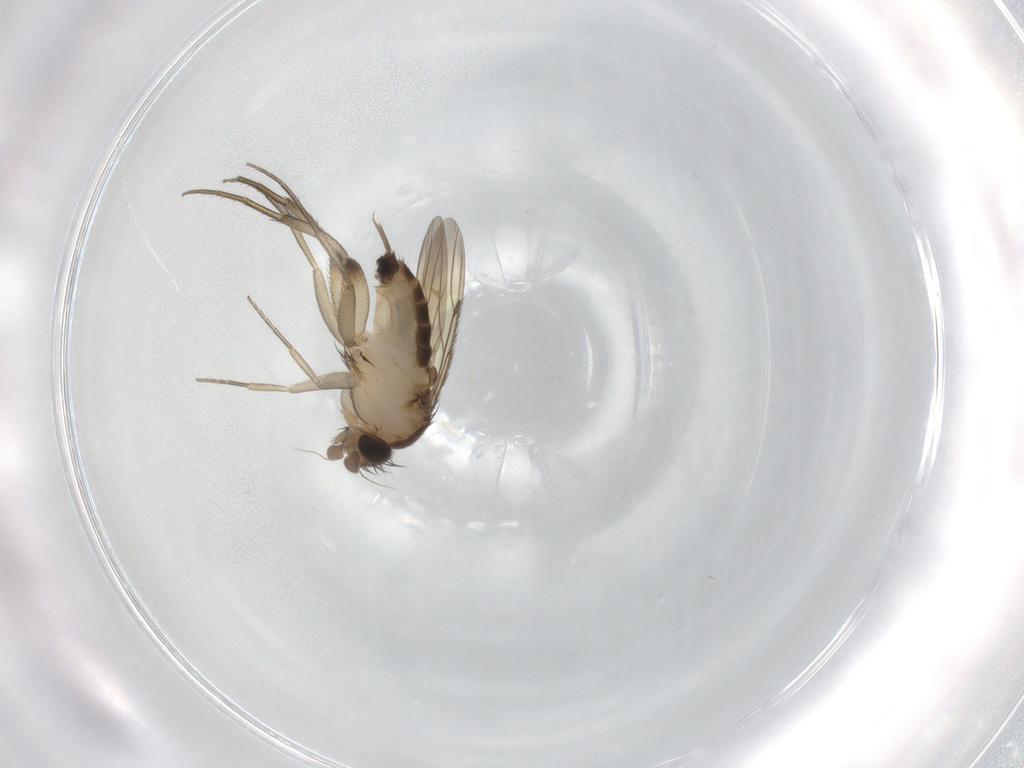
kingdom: Animalia
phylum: Arthropoda
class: Insecta
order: Diptera
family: Phoridae
